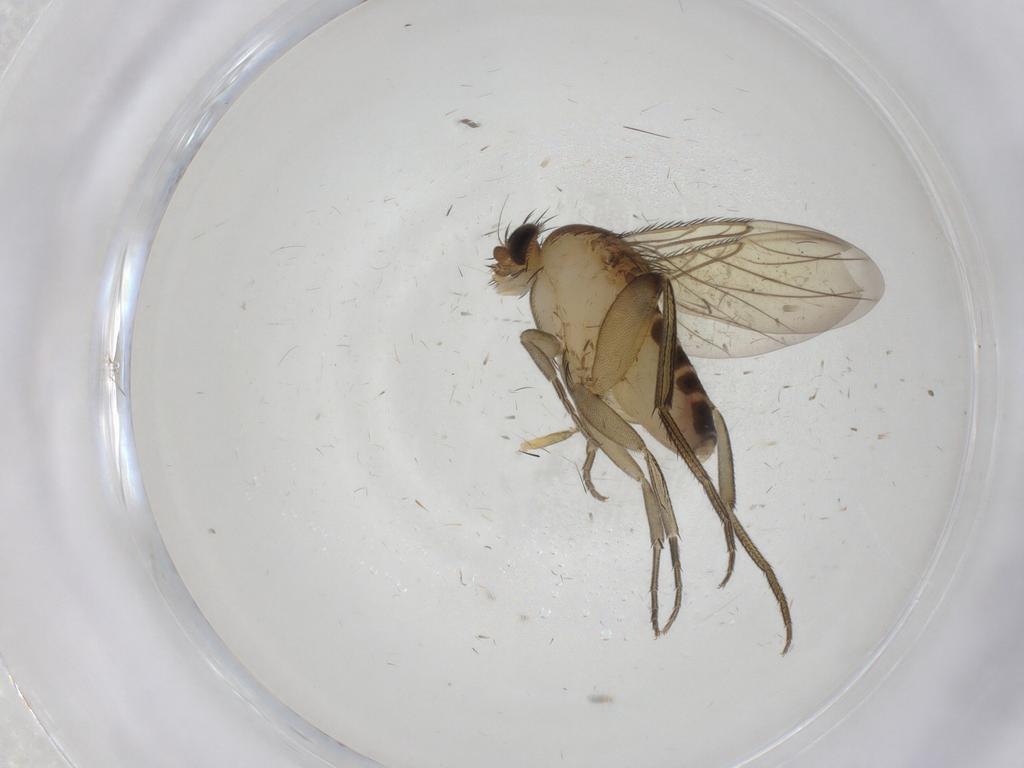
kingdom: Animalia
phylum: Arthropoda
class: Insecta
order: Diptera
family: Phoridae
